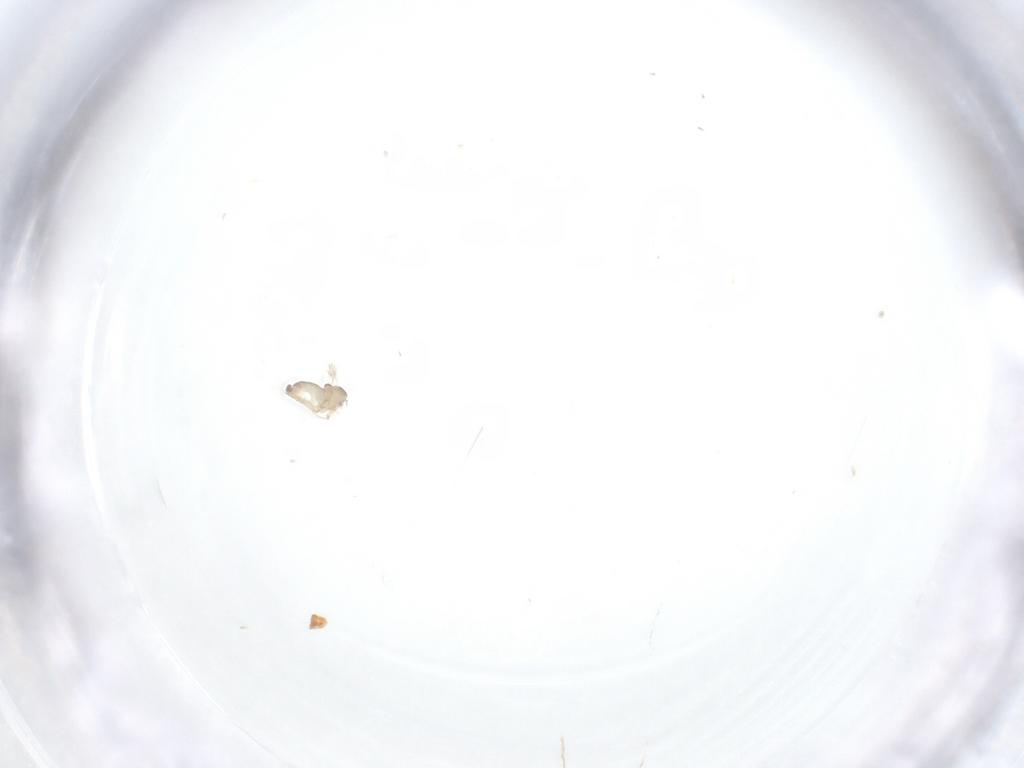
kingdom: Animalia
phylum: Arthropoda
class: Insecta
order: Diptera
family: Cecidomyiidae
